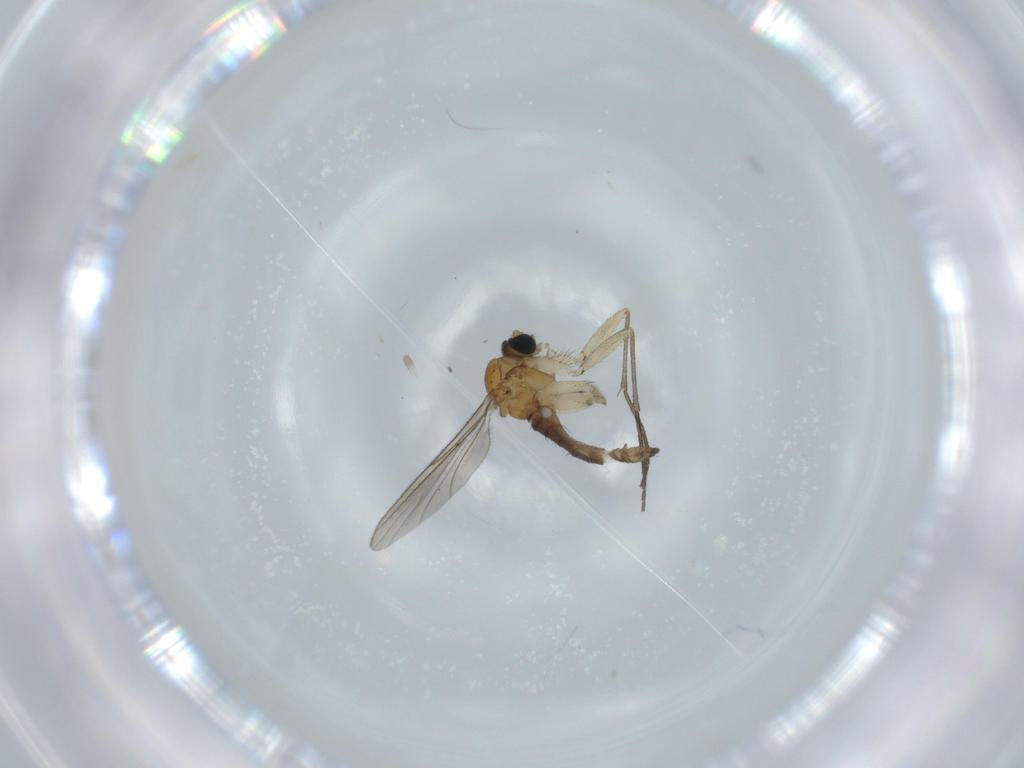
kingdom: Animalia
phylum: Arthropoda
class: Insecta
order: Diptera
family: Sciaridae
